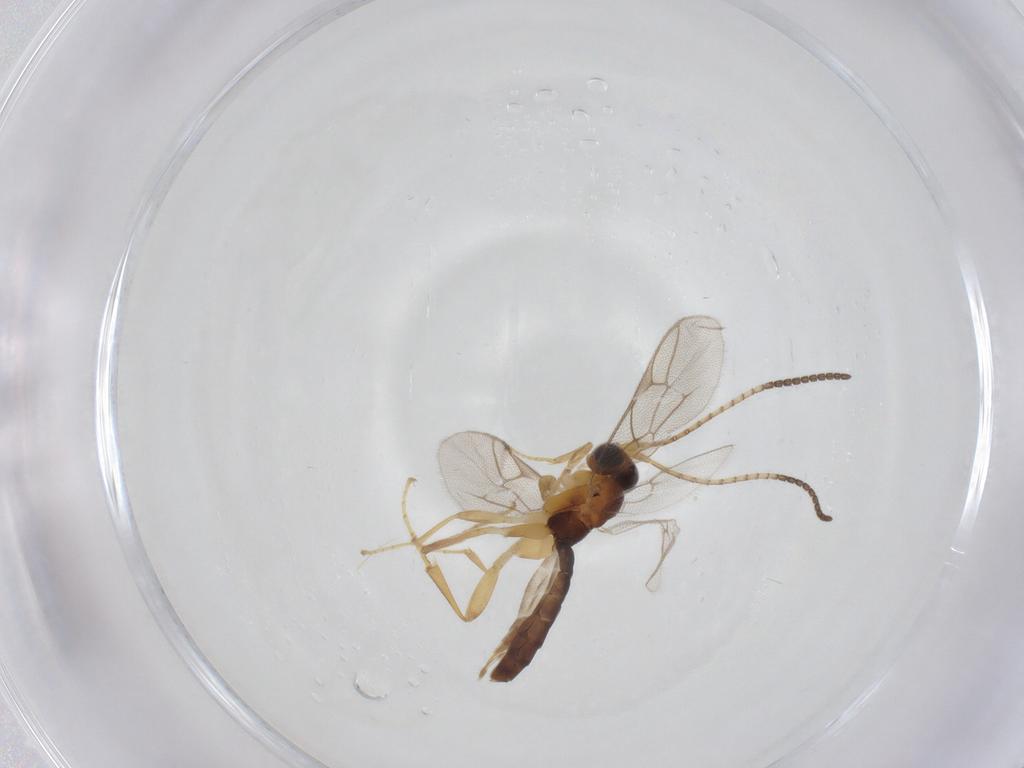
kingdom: Animalia
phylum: Arthropoda
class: Insecta
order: Hymenoptera
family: Ichneumonidae
